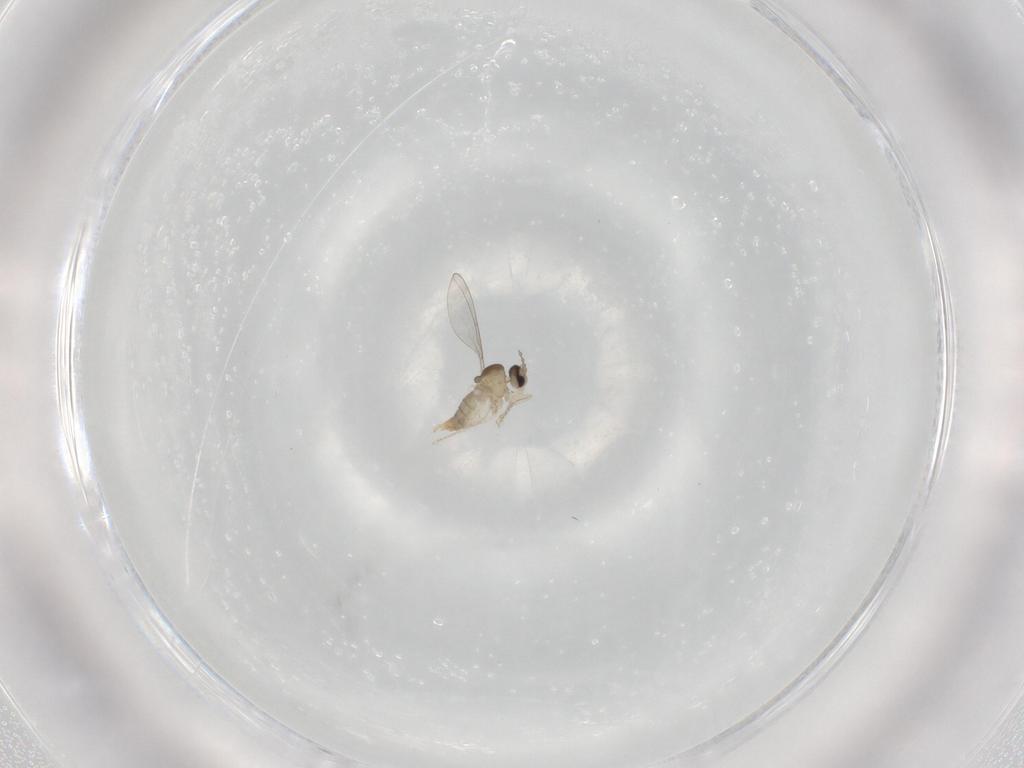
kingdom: Animalia
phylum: Arthropoda
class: Insecta
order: Diptera
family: Cecidomyiidae
